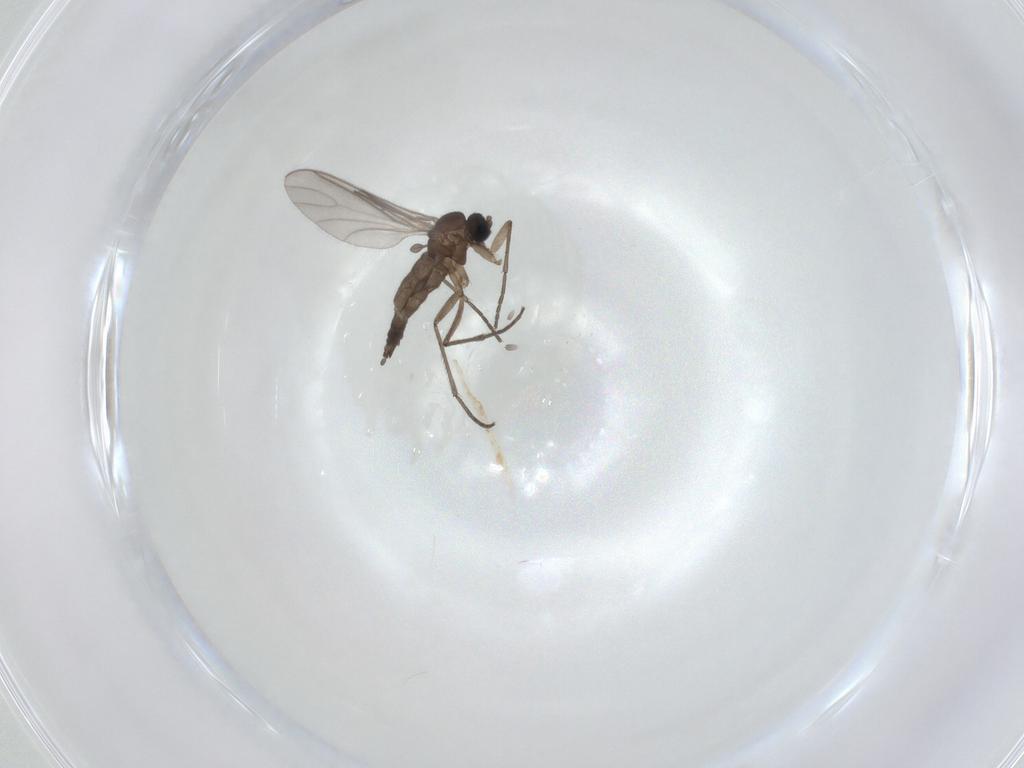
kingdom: Animalia
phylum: Arthropoda
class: Insecta
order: Diptera
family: Sciaridae
